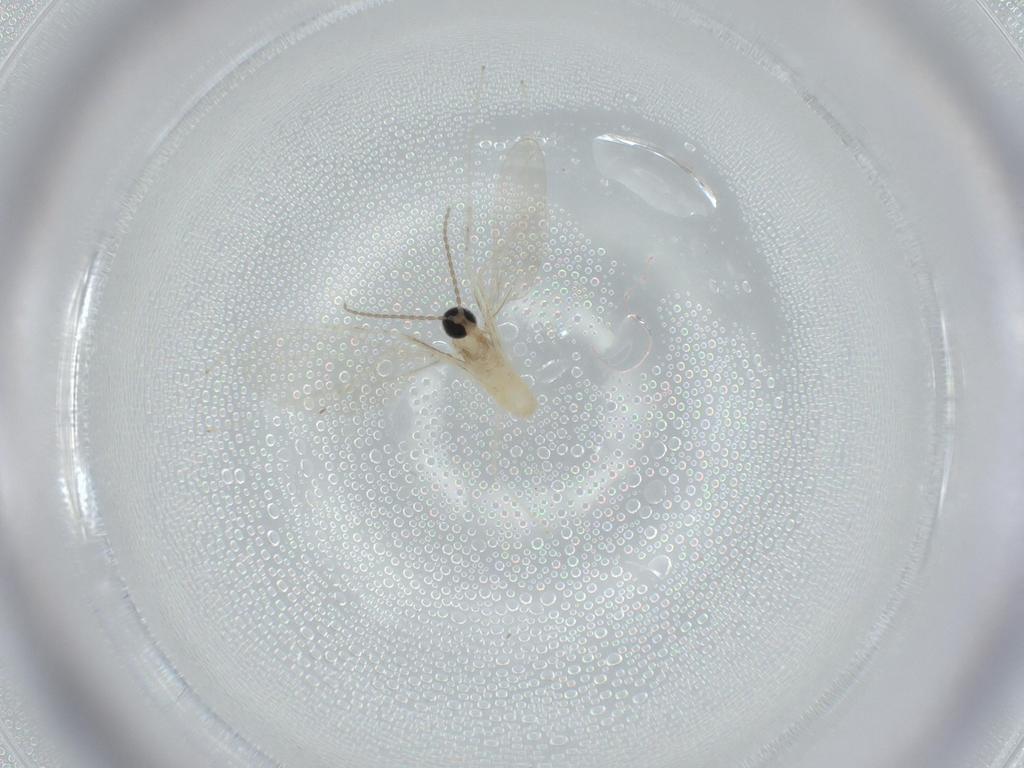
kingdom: Animalia
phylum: Arthropoda
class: Insecta
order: Diptera
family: Cecidomyiidae
